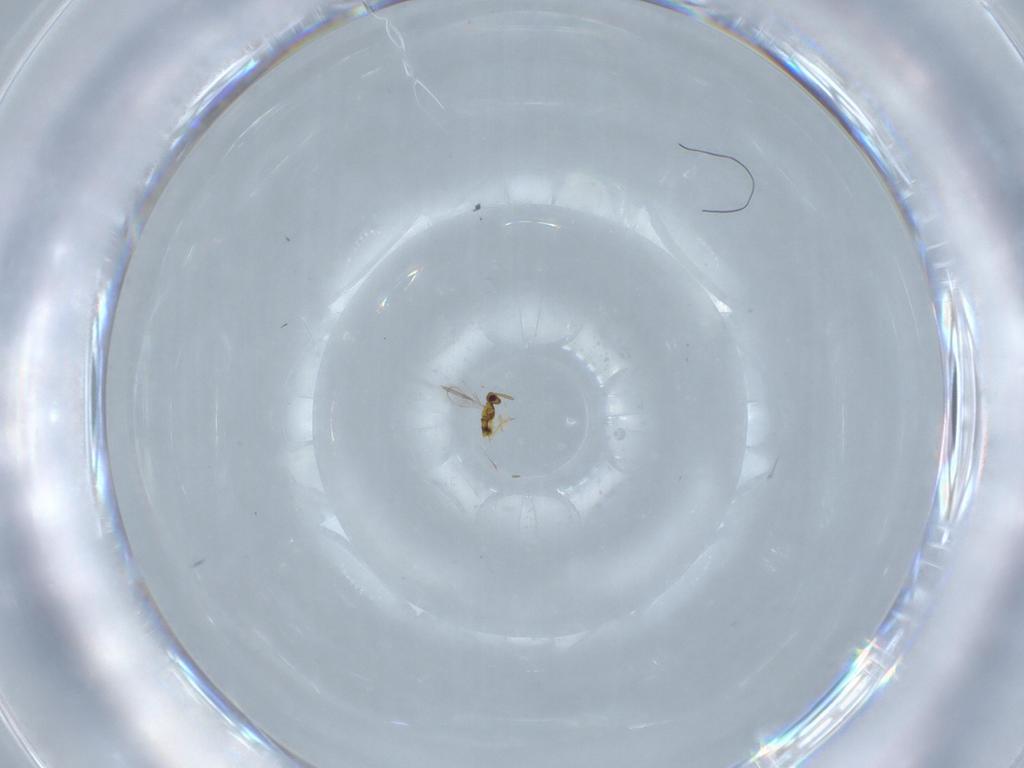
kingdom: Animalia
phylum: Arthropoda
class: Insecta
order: Hymenoptera
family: Aphelinidae
